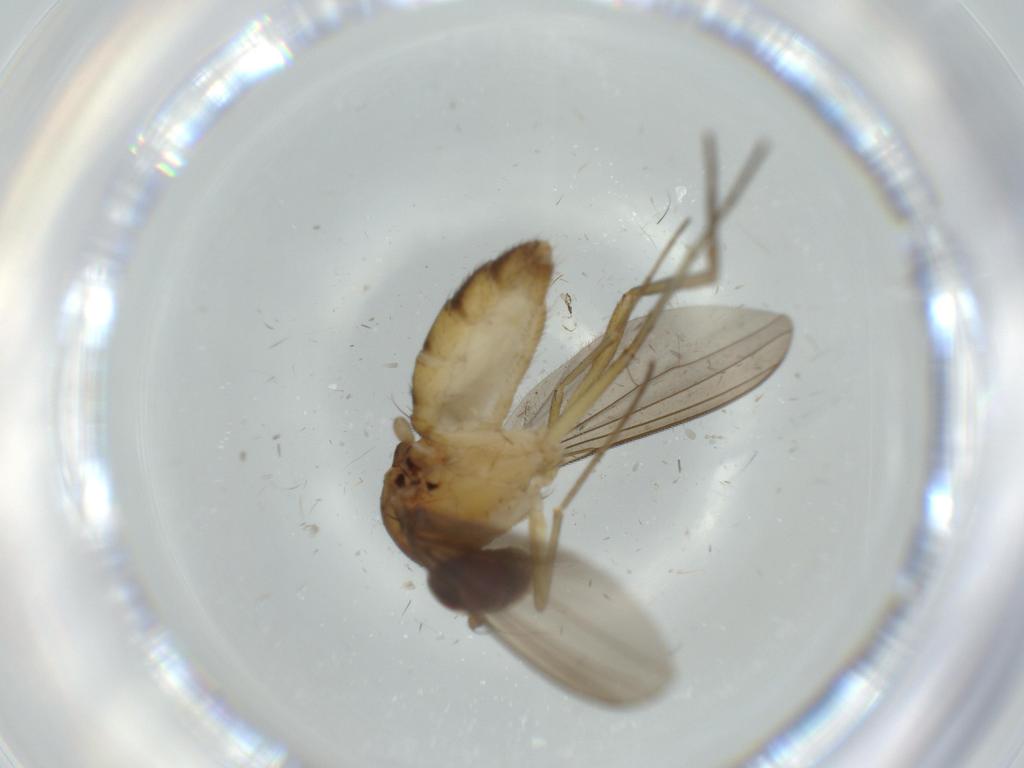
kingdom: Animalia
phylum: Arthropoda
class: Insecta
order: Diptera
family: Dolichopodidae
